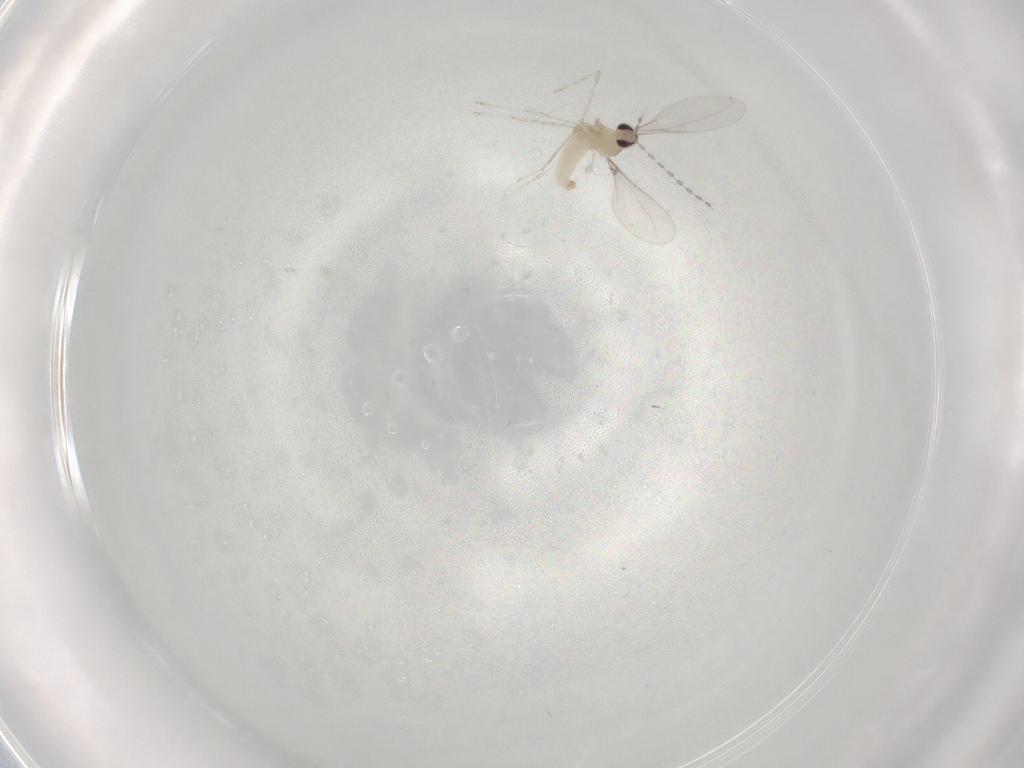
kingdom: Animalia
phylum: Arthropoda
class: Insecta
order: Diptera
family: Cecidomyiidae
